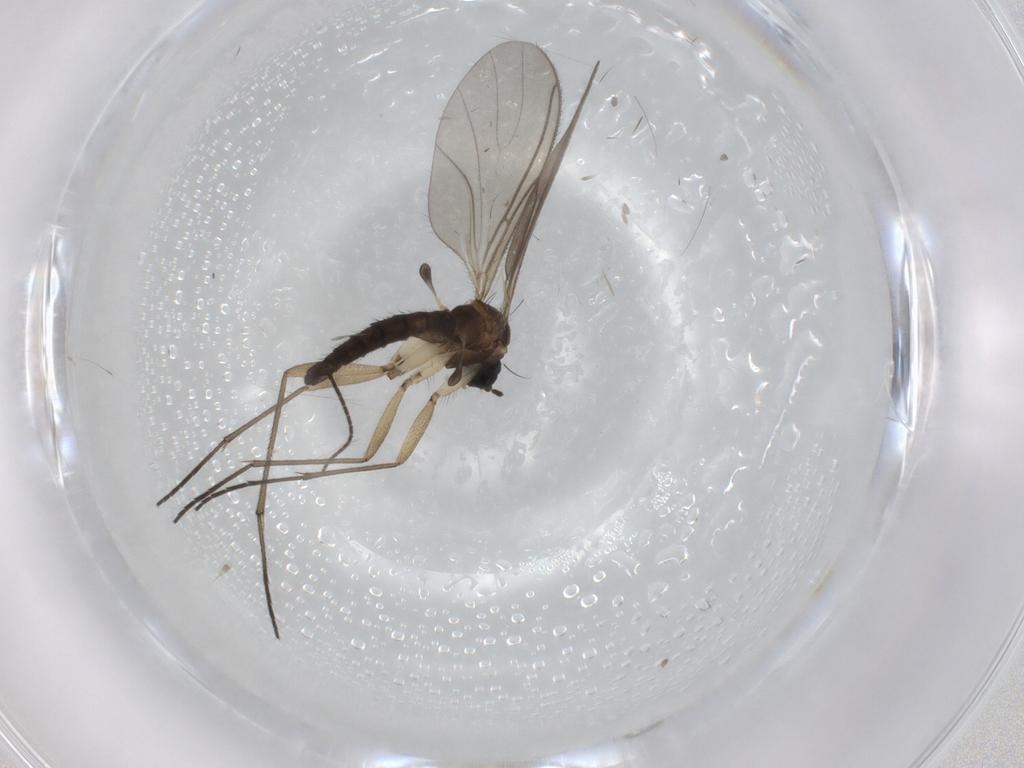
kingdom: Animalia
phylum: Arthropoda
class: Insecta
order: Diptera
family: Sciaridae
